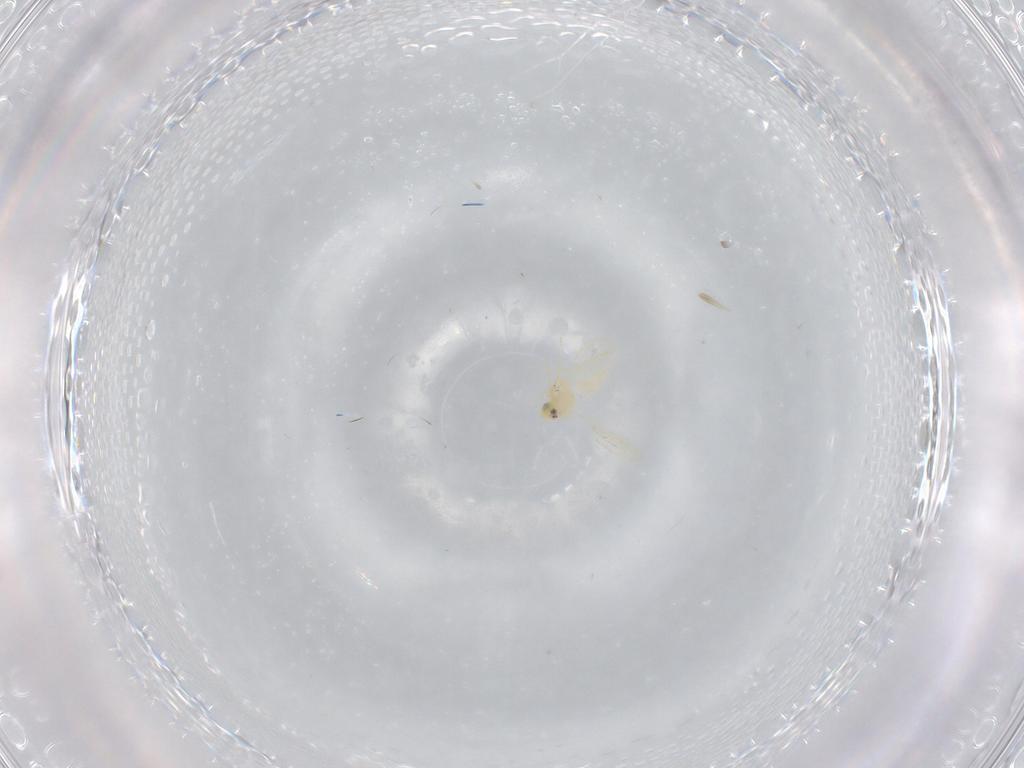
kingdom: Animalia
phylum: Arthropoda
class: Insecta
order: Hemiptera
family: Aleyrodidae
